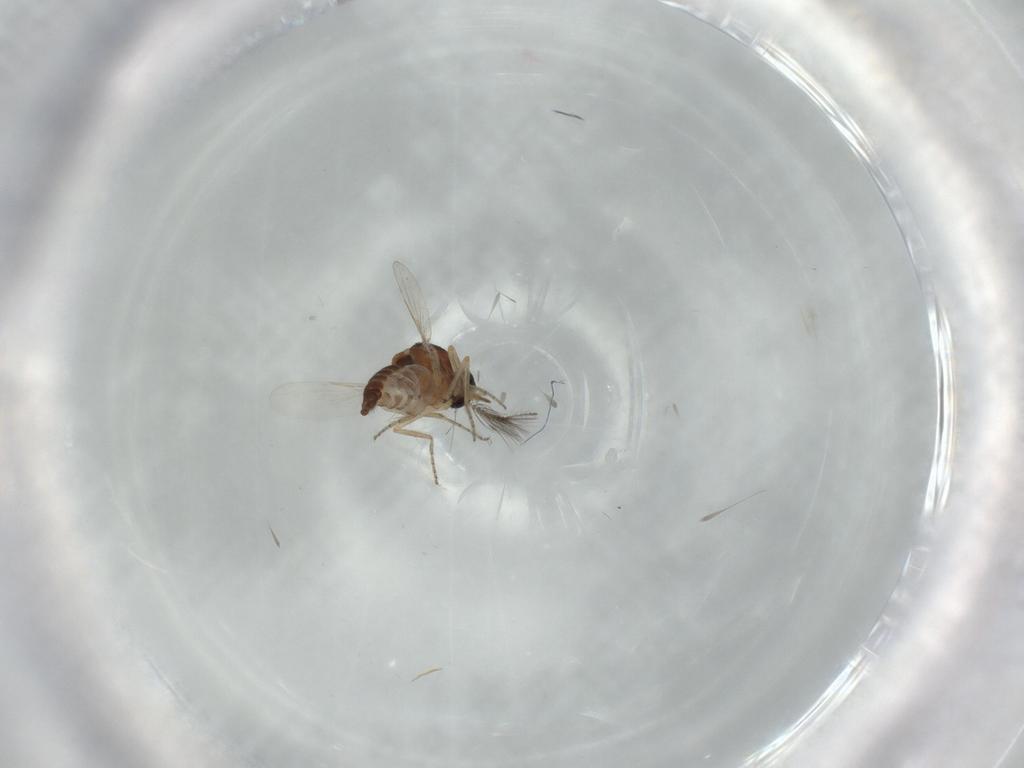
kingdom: Animalia
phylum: Arthropoda
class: Insecta
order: Diptera
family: Ceratopogonidae
